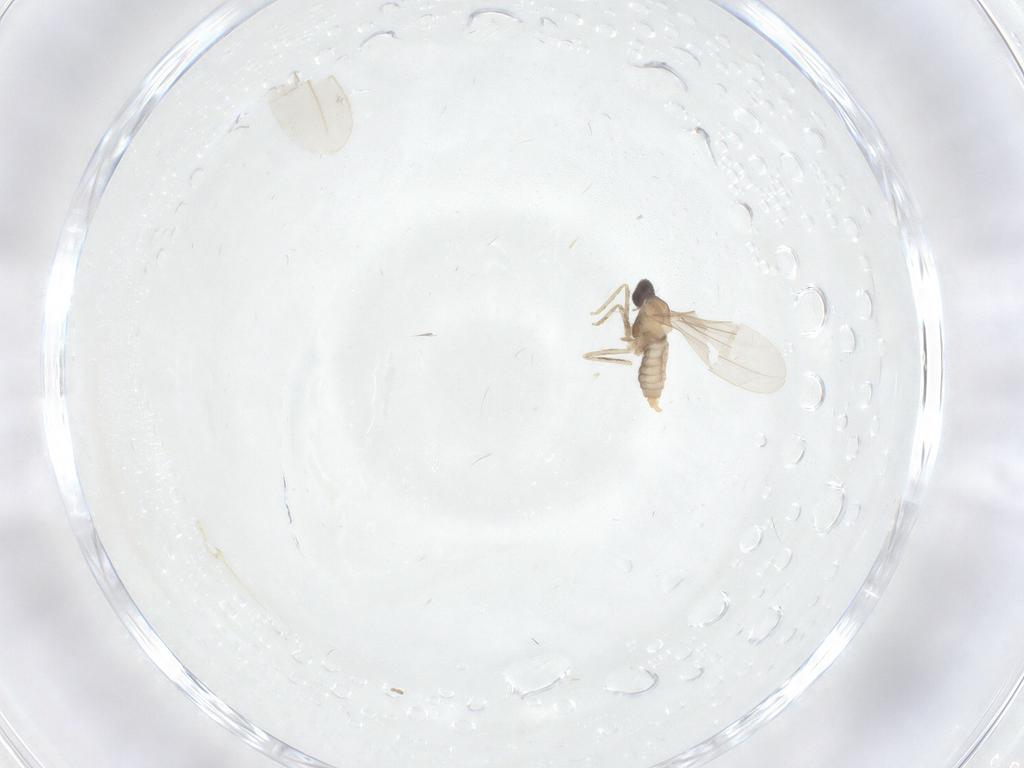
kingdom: Animalia
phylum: Arthropoda
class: Insecta
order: Diptera
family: Cecidomyiidae
